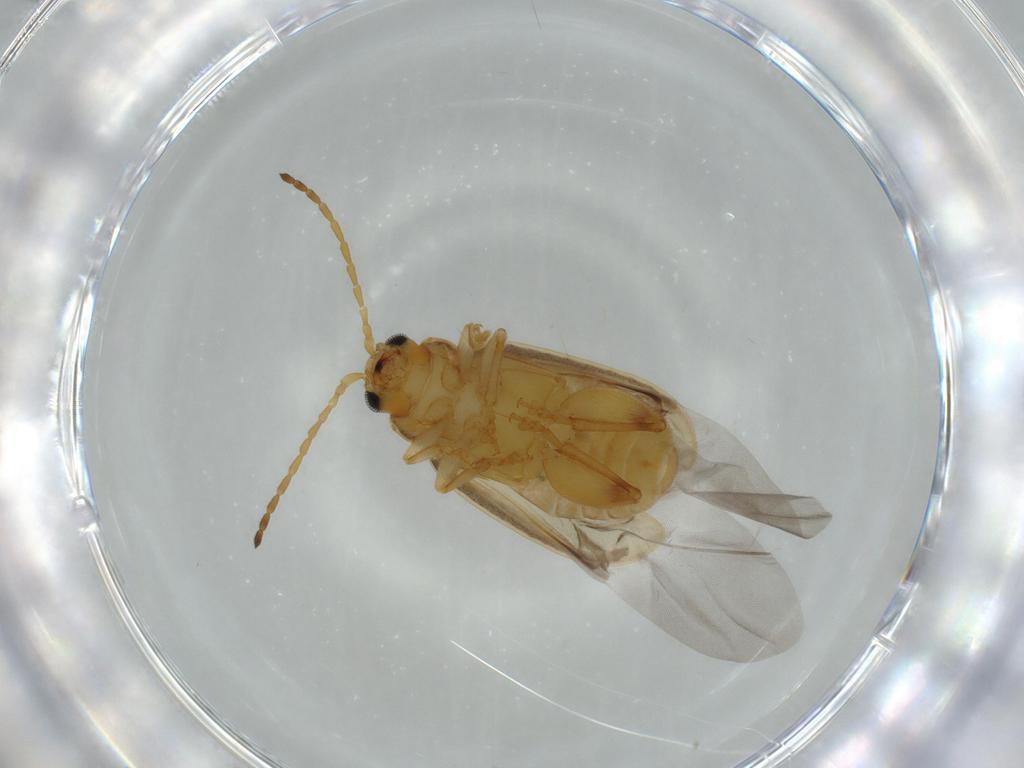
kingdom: Animalia
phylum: Arthropoda
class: Insecta
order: Coleoptera
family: Chrysomelidae
